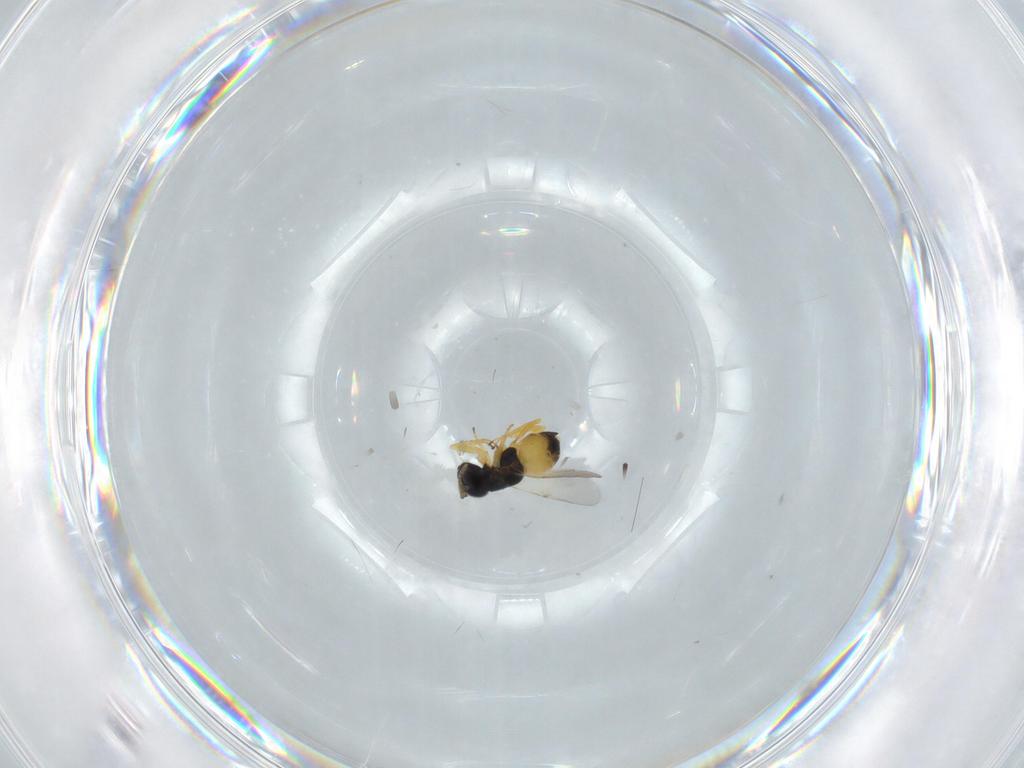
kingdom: Animalia
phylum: Arthropoda
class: Insecta
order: Hymenoptera
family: Encyrtidae
